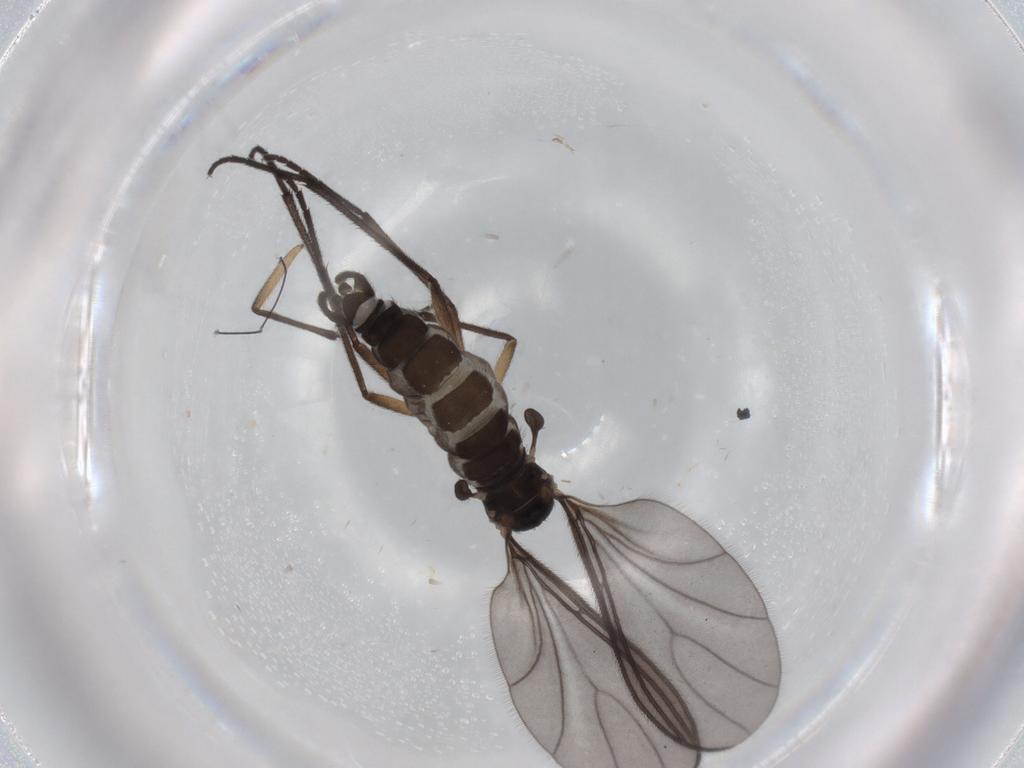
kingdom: Animalia
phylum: Arthropoda
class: Insecta
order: Diptera
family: Sciaridae
